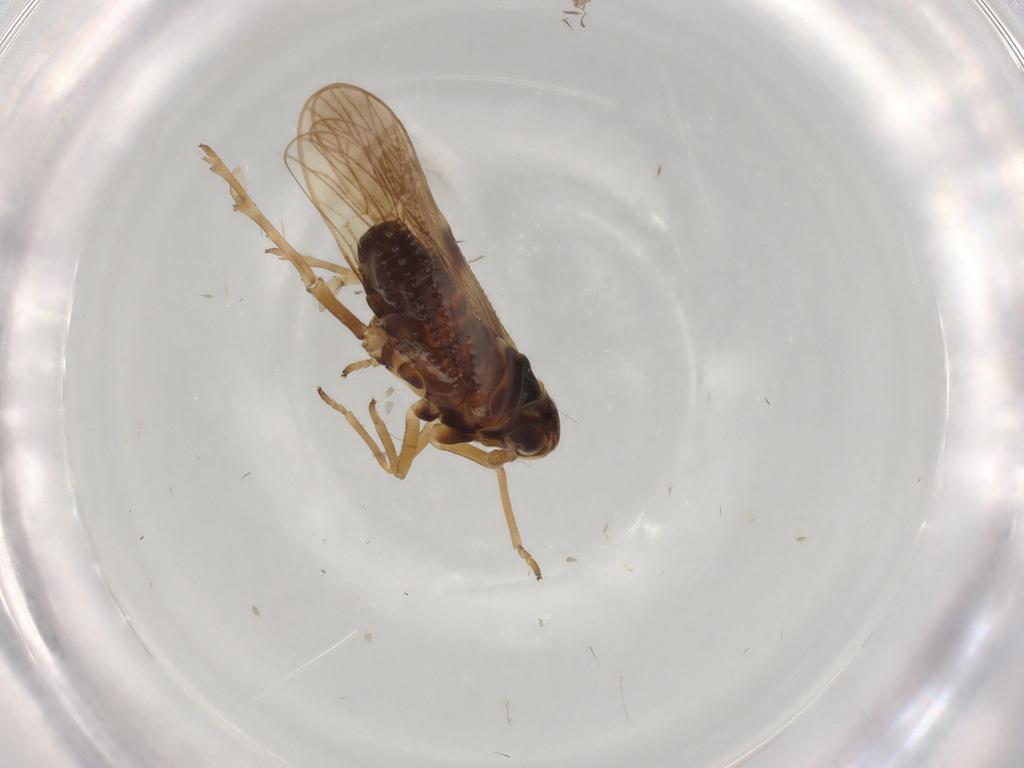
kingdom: Animalia
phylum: Arthropoda
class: Insecta
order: Hemiptera
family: Delphacidae
